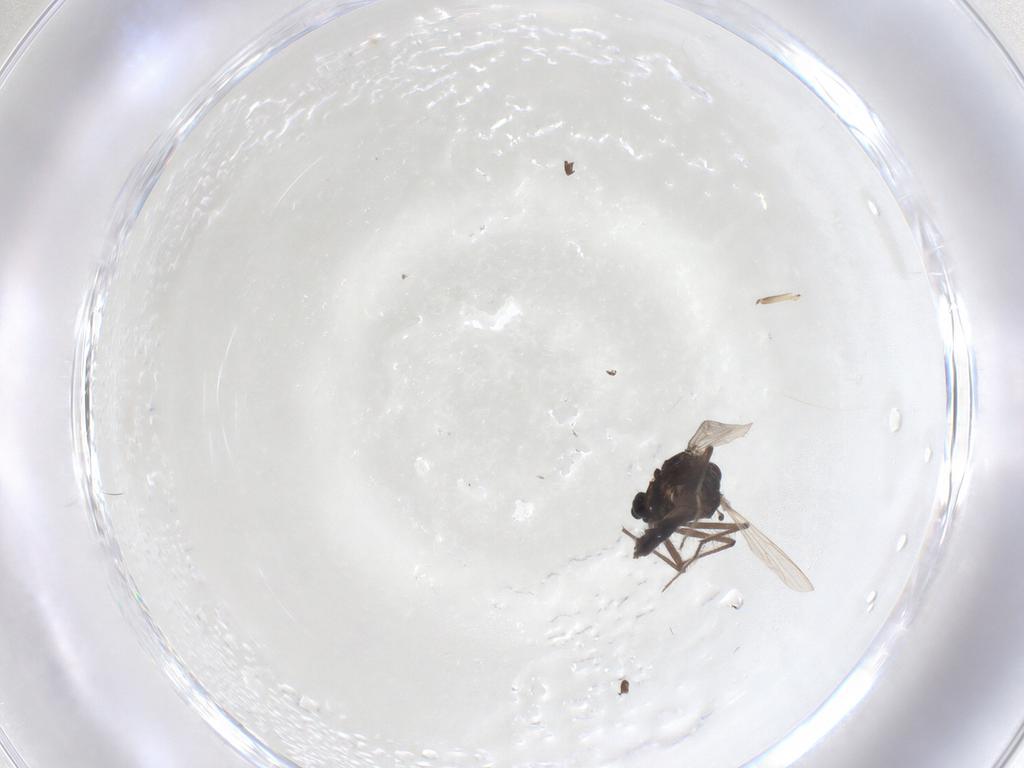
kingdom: Animalia
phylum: Arthropoda
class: Insecta
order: Diptera
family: Chironomidae
